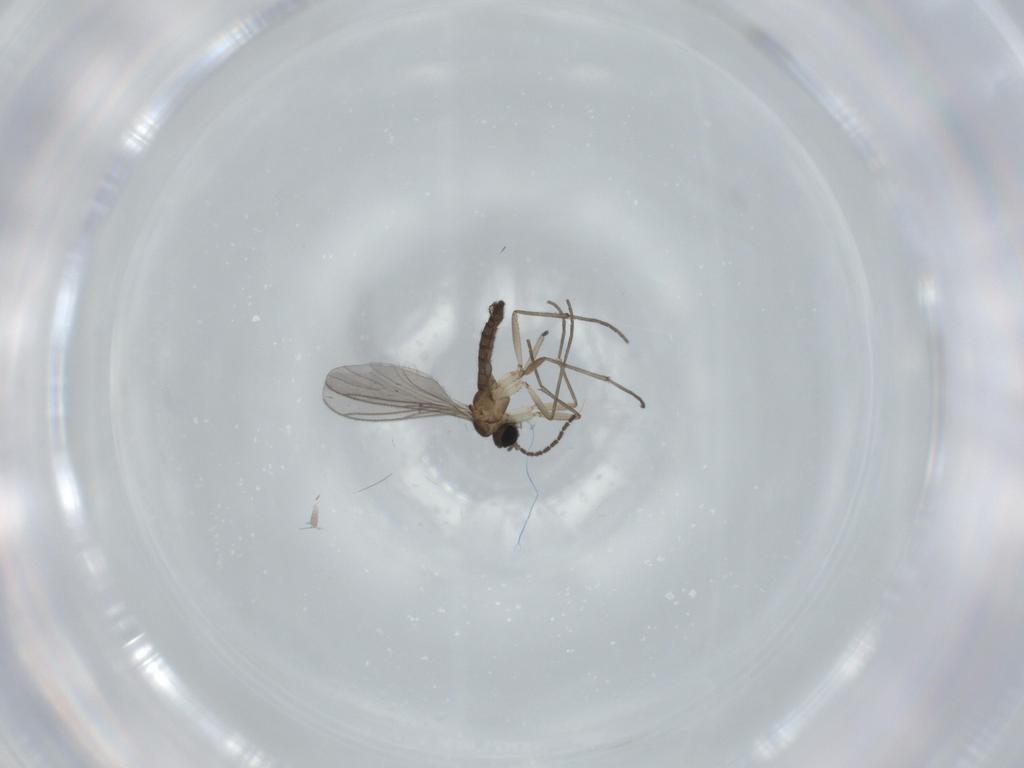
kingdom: Animalia
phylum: Arthropoda
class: Insecta
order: Diptera
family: Sciaridae
